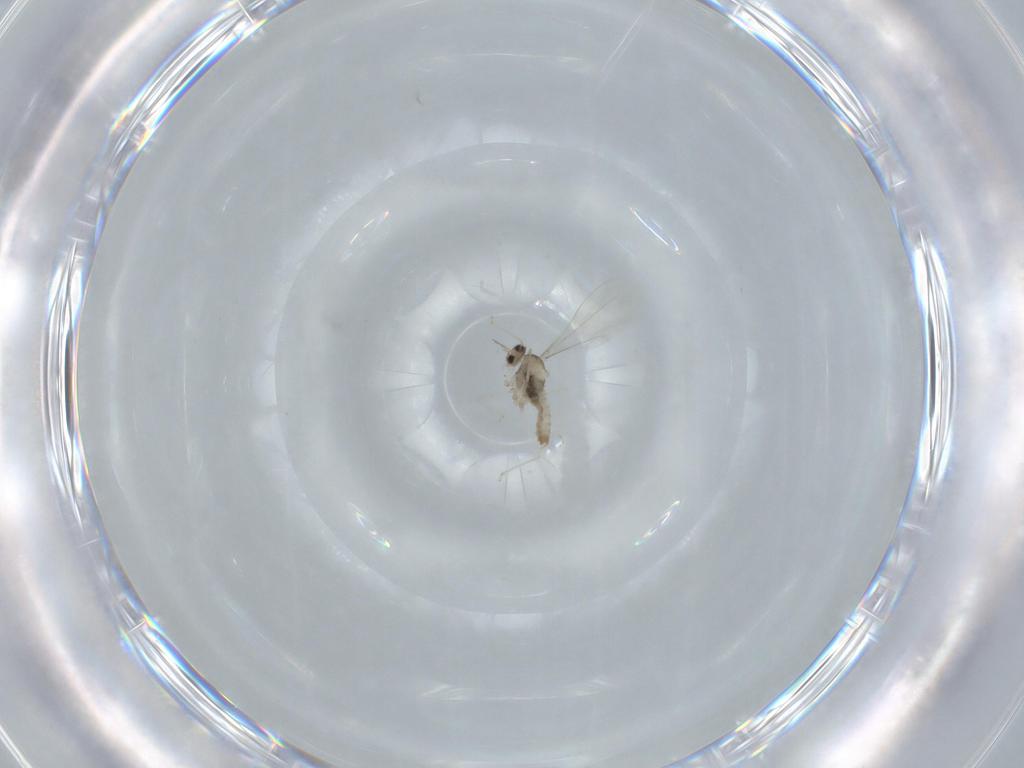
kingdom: Animalia
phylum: Arthropoda
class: Insecta
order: Diptera
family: Cecidomyiidae
